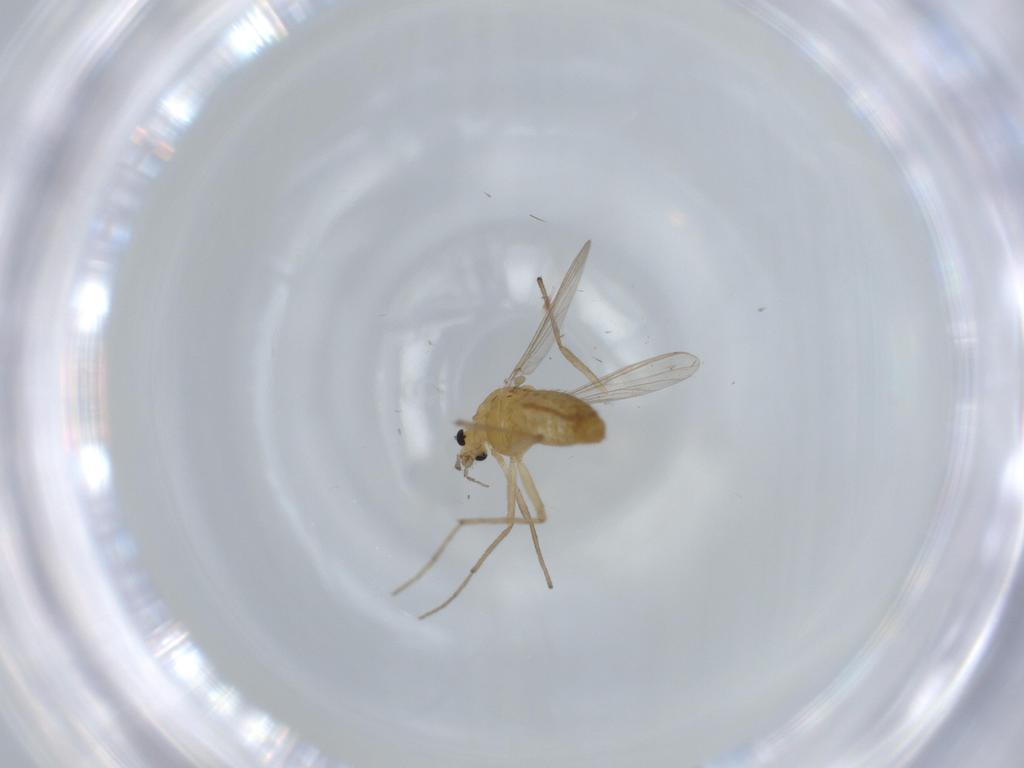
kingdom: Animalia
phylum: Arthropoda
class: Insecta
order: Diptera
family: Chironomidae
